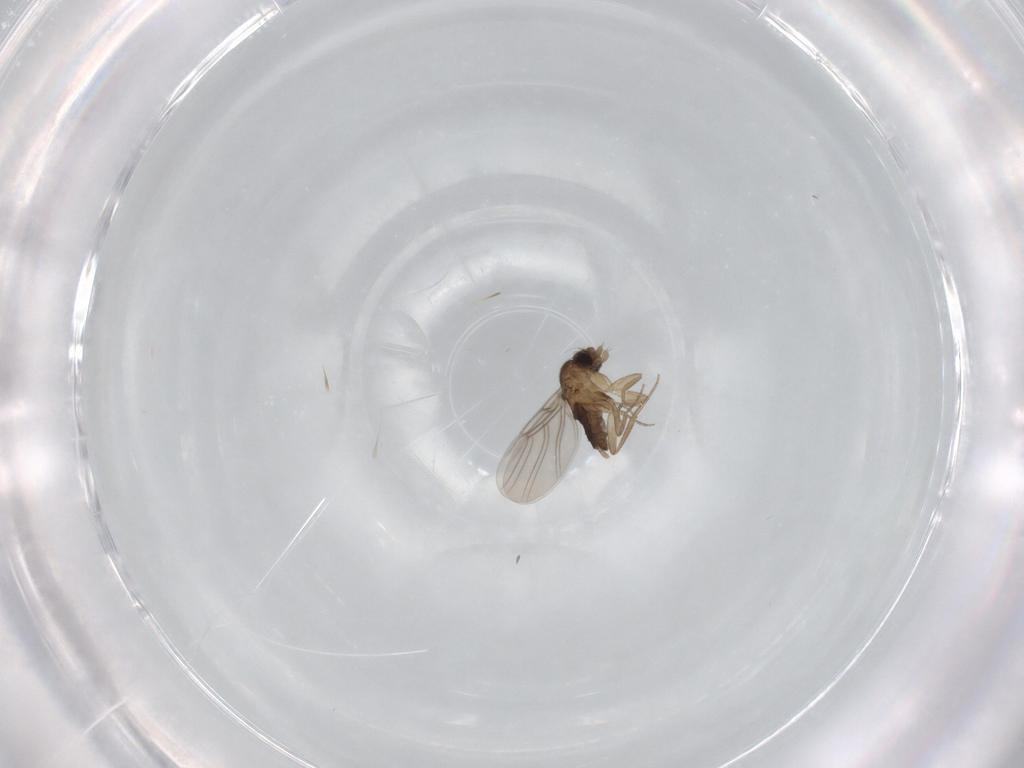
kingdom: Animalia
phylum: Arthropoda
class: Insecta
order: Diptera
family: Phoridae
